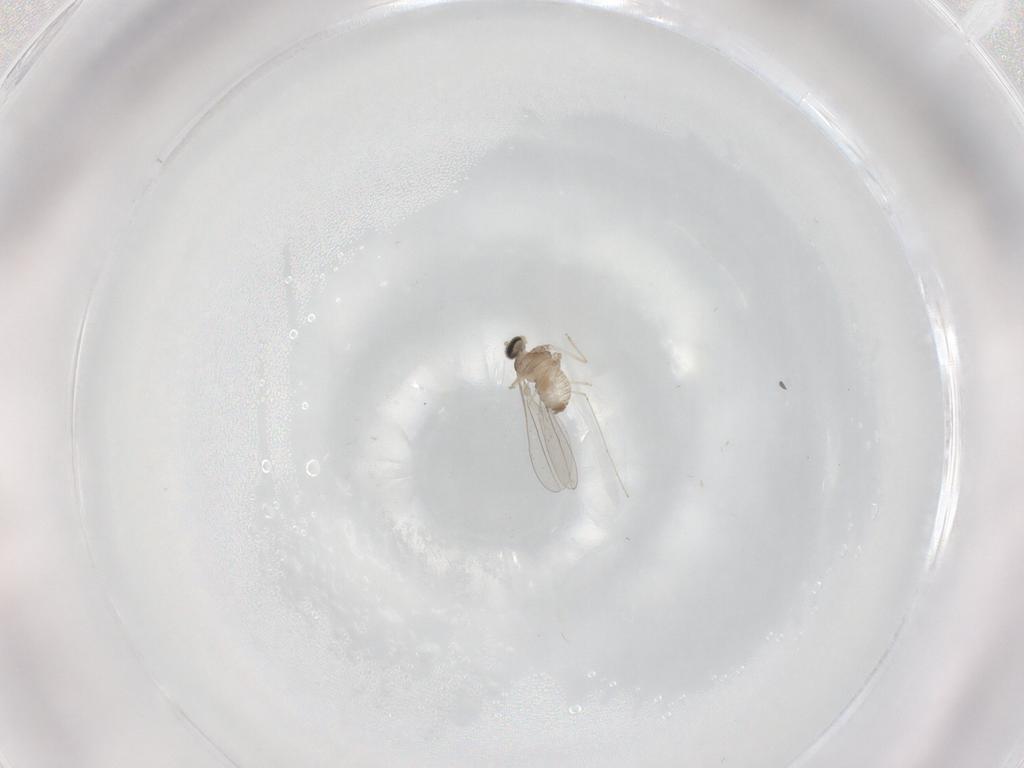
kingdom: Animalia
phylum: Arthropoda
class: Insecta
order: Diptera
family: Cecidomyiidae
